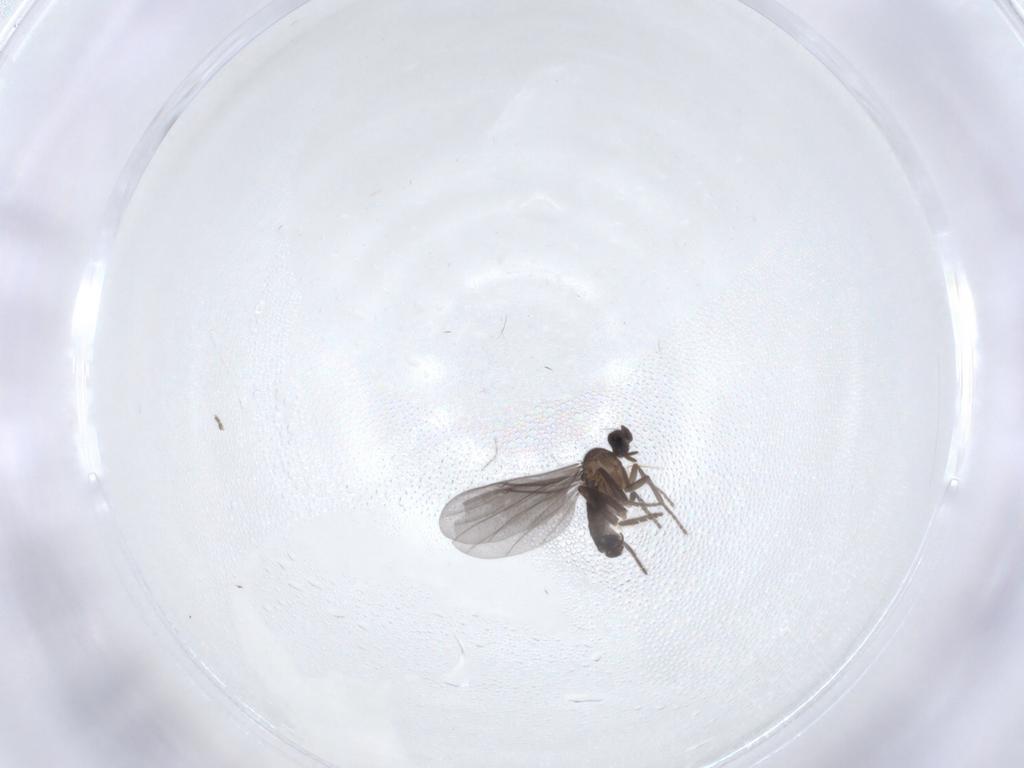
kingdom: Animalia
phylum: Arthropoda
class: Insecta
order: Diptera
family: Phoridae
